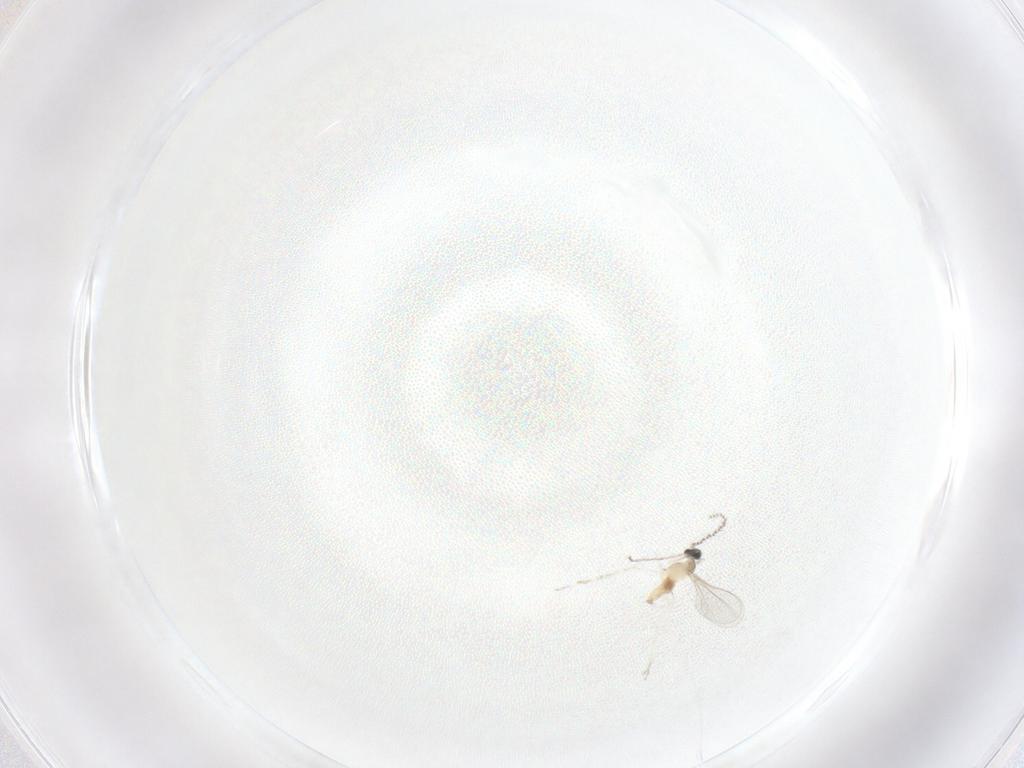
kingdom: Animalia
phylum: Arthropoda
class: Insecta
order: Diptera
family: Cecidomyiidae
